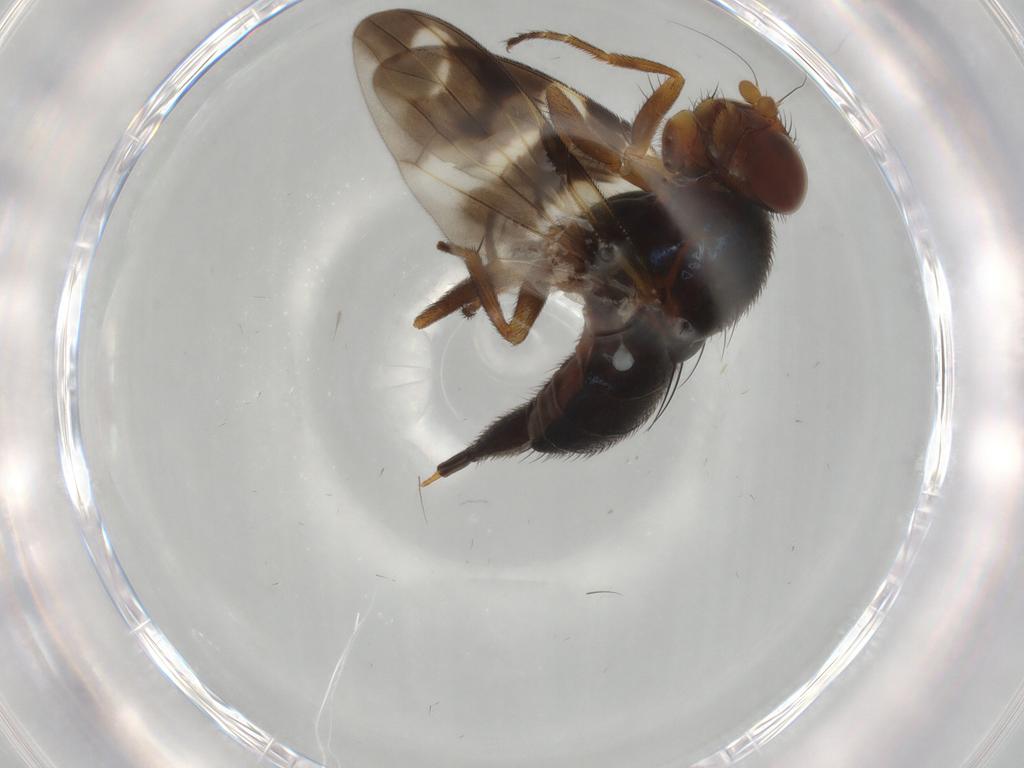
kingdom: Animalia
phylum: Arthropoda
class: Insecta
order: Diptera
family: Ulidiidae
